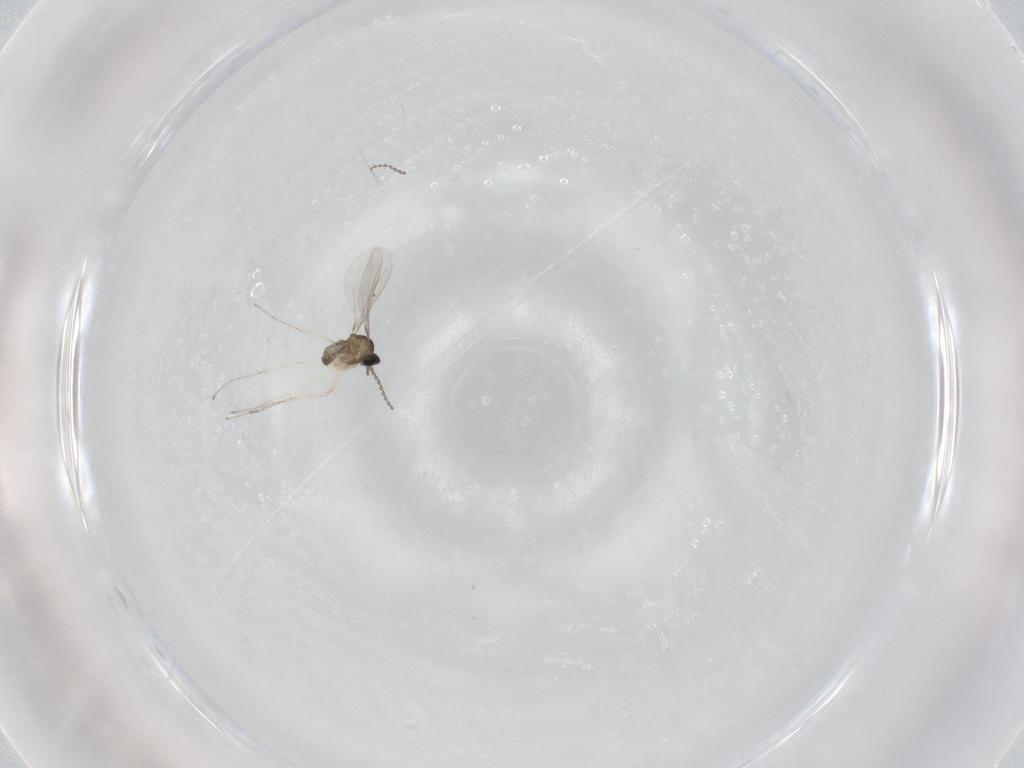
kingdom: Animalia
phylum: Arthropoda
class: Insecta
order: Diptera
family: Cecidomyiidae
